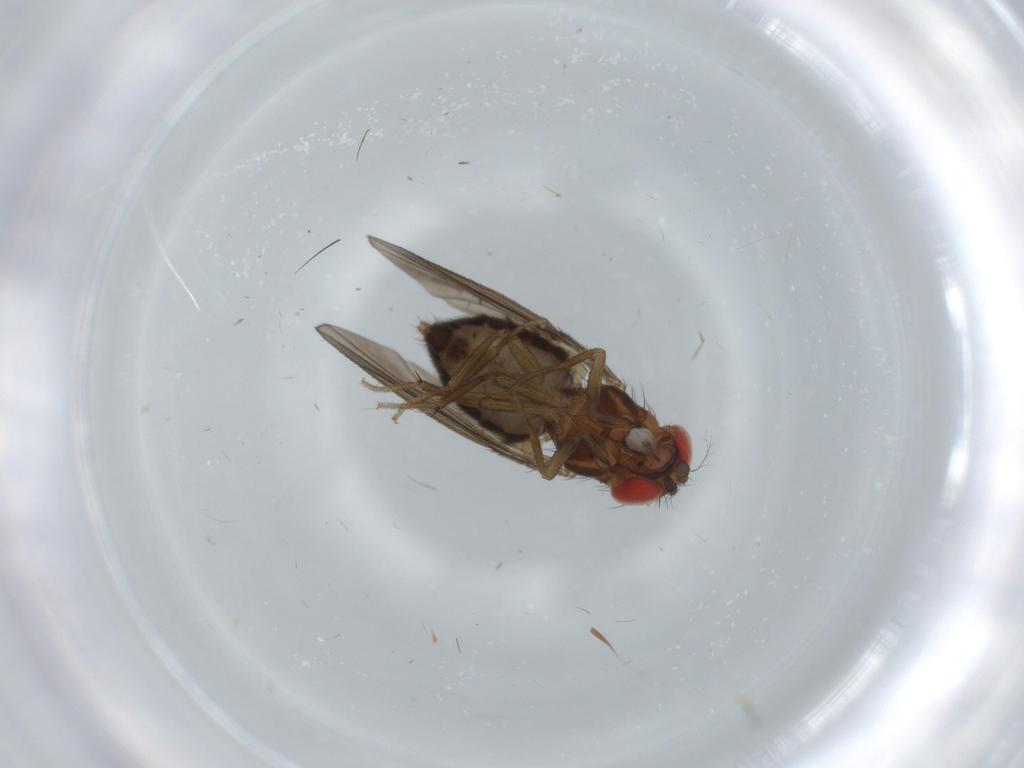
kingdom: Animalia
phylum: Arthropoda
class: Insecta
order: Diptera
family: Drosophilidae
